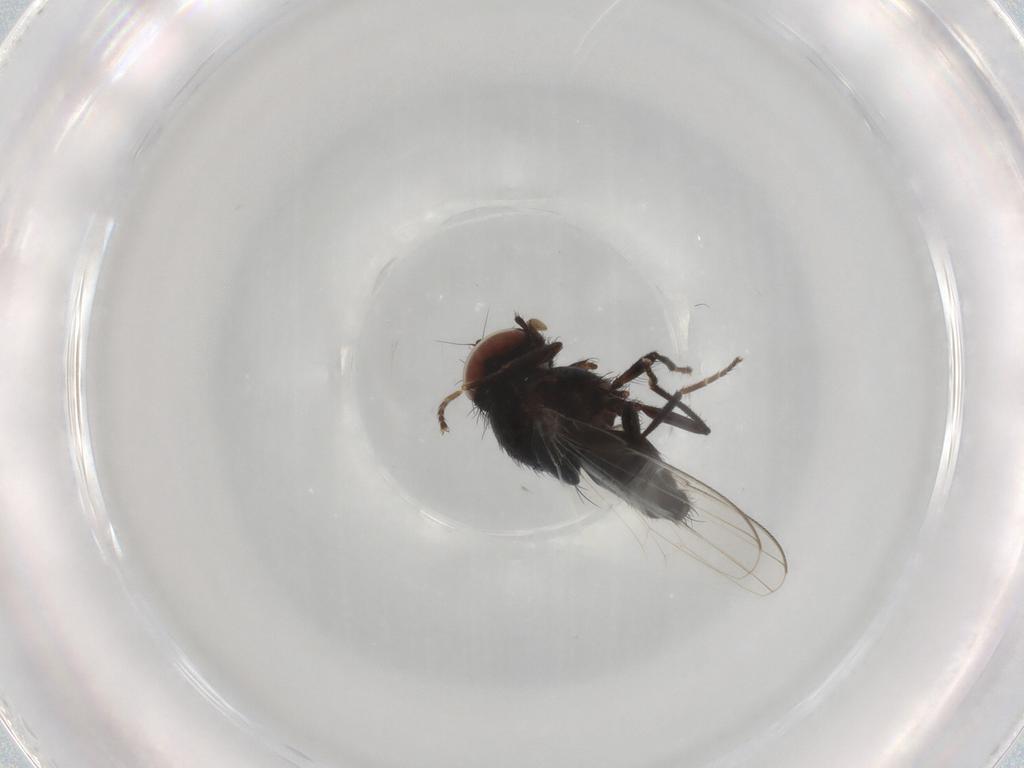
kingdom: Animalia
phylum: Arthropoda
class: Insecta
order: Diptera
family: Milichiidae
